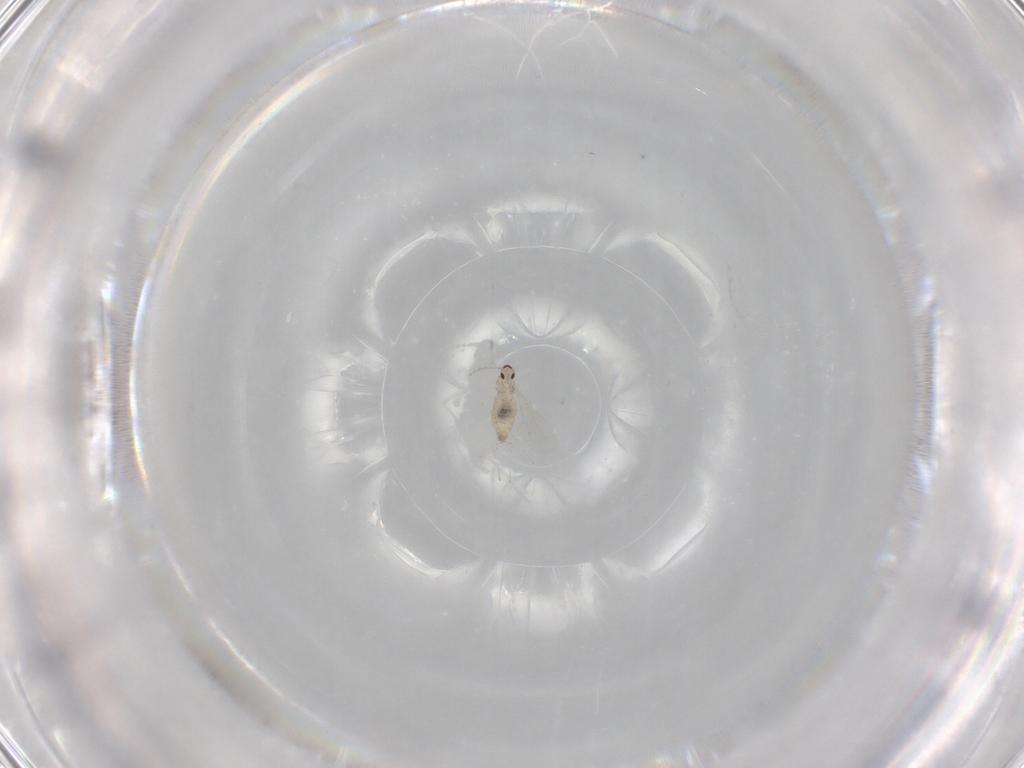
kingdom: Animalia
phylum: Arthropoda
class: Insecta
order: Diptera
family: Cecidomyiidae
